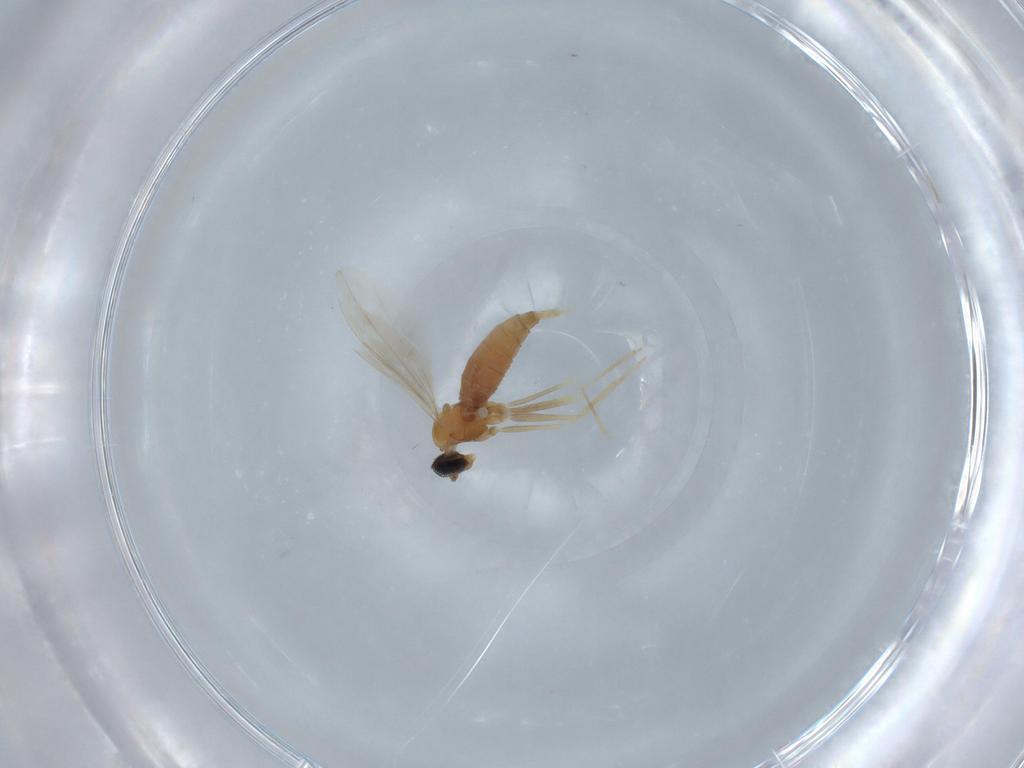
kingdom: Animalia
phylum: Arthropoda
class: Insecta
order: Diptera
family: Cecidomyiidae
